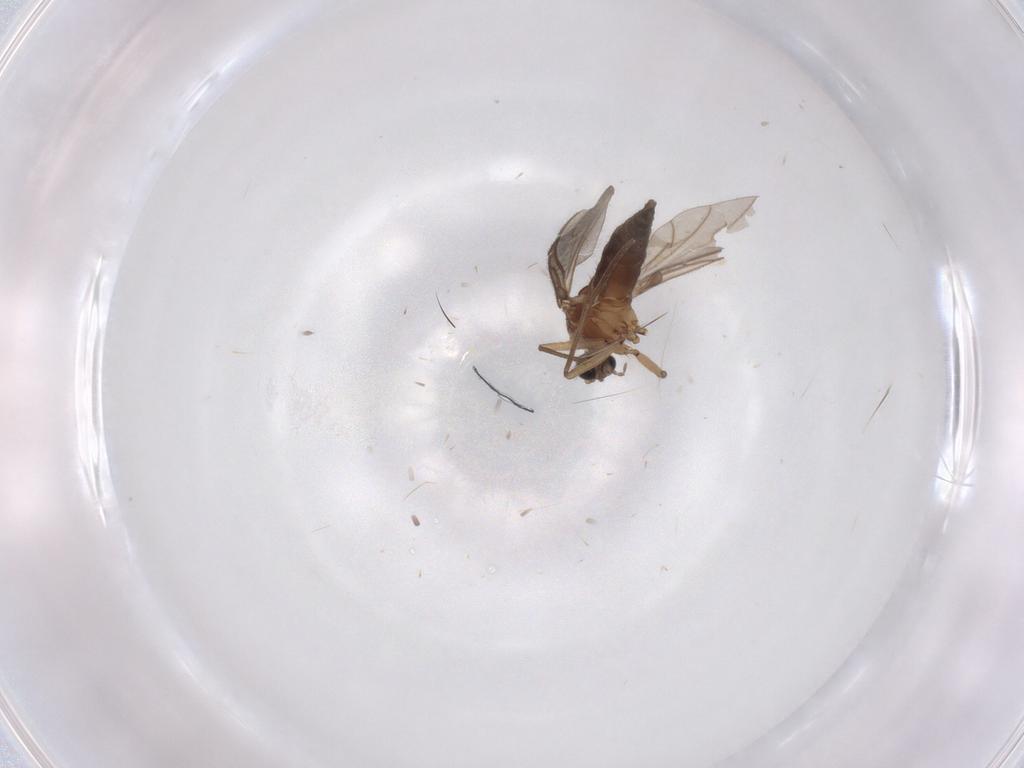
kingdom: Animalia
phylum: Arthropoda
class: Insecta
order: Diptera
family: Sciaridae
